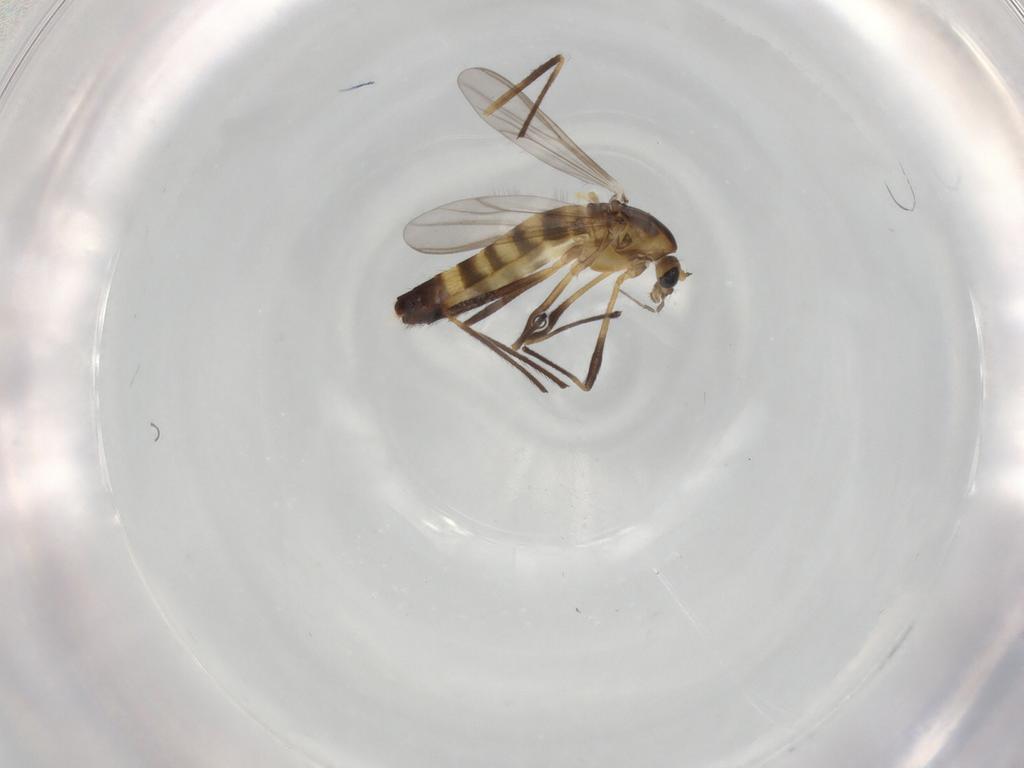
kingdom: Animalia
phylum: Arthropoda
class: Insecta
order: Diptera
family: Chironomidae
